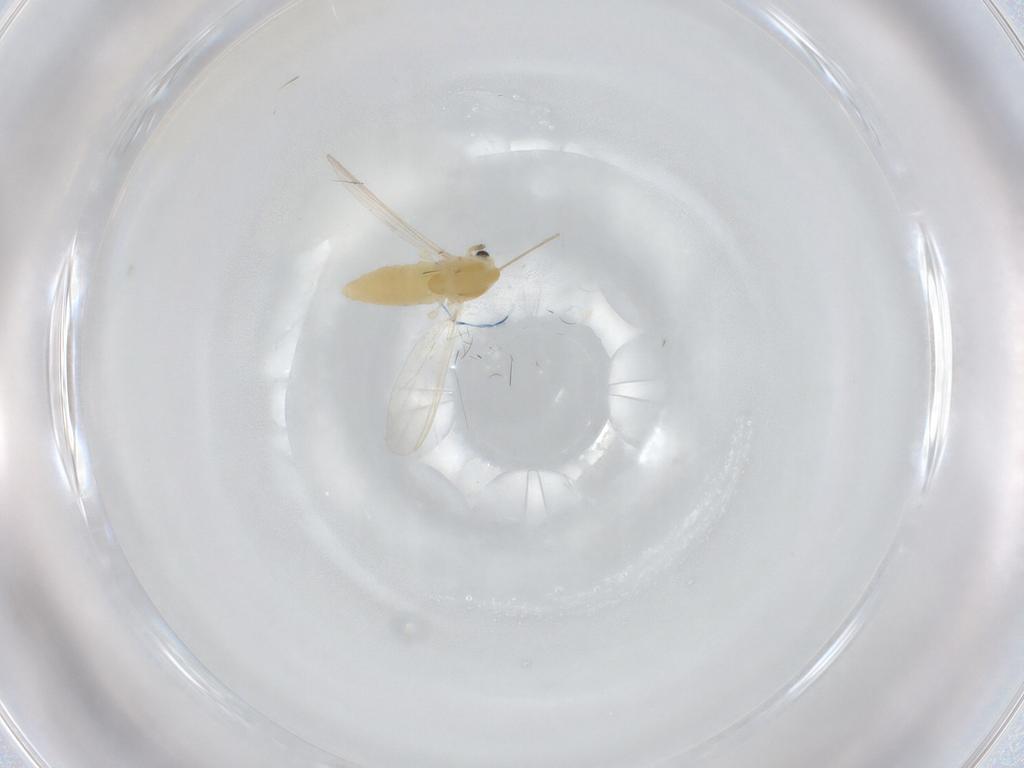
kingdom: Animalia
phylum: Arthropoda
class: Insecta
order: Diptera
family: Chironomidae
